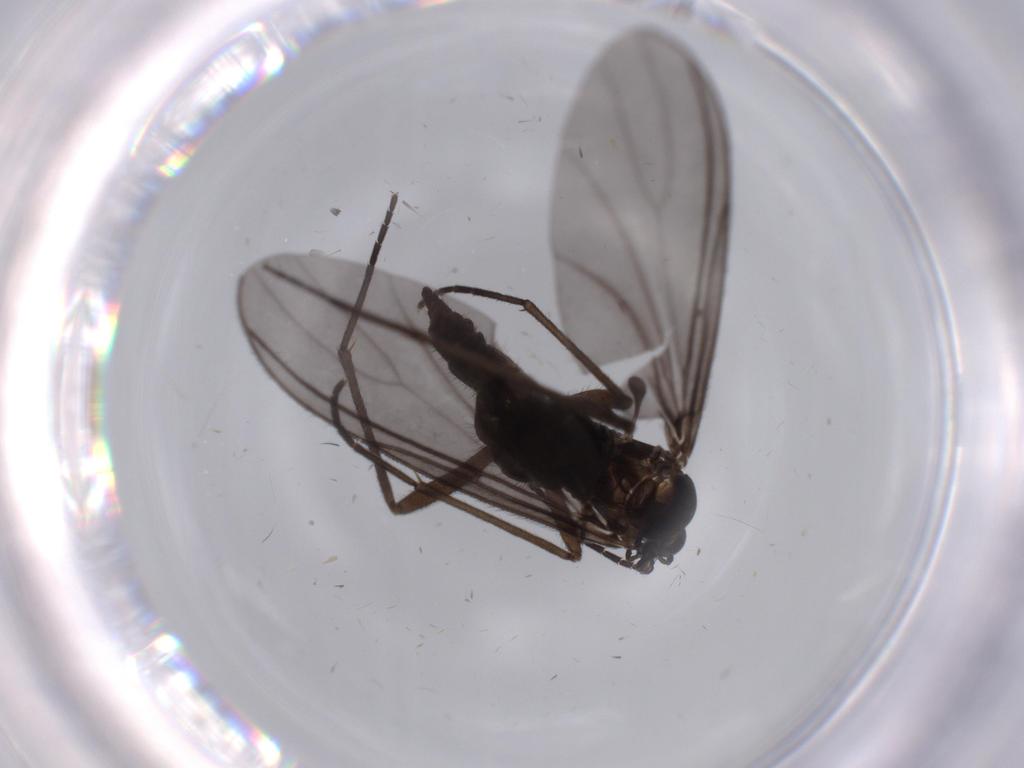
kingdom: Animalia
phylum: Arthropoda
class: Insecta
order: Diptera
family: Sciaridae
